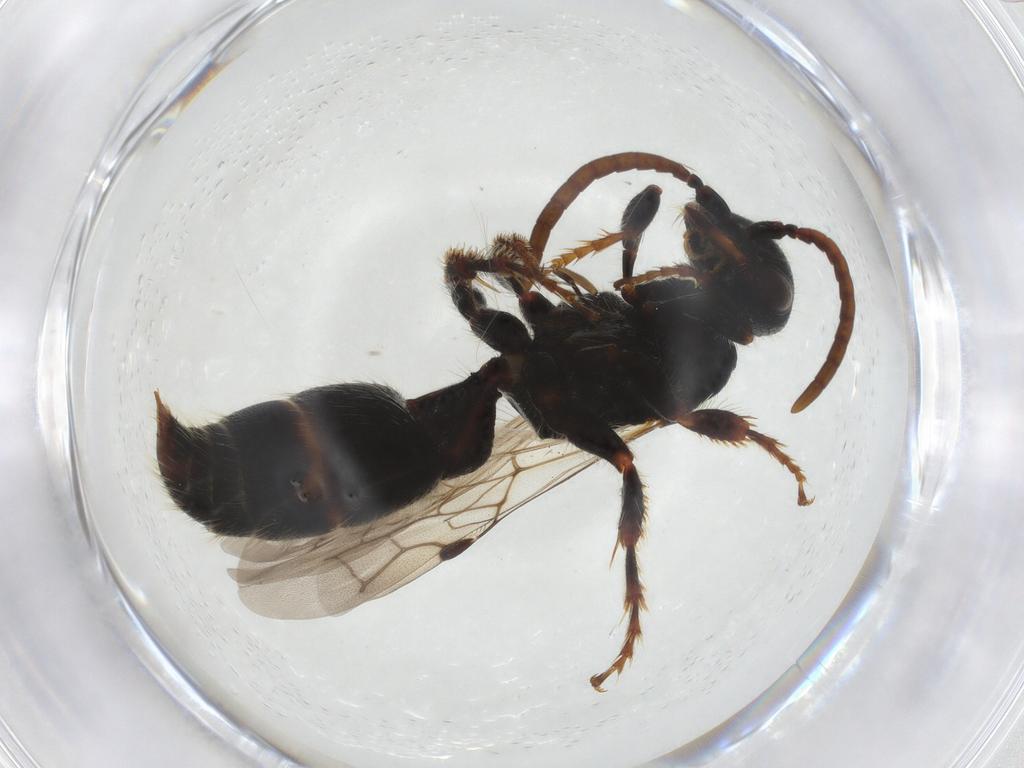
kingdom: Animalia
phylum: Arthropoda
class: Insecta
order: Hymenoptera
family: Tiphiidae
